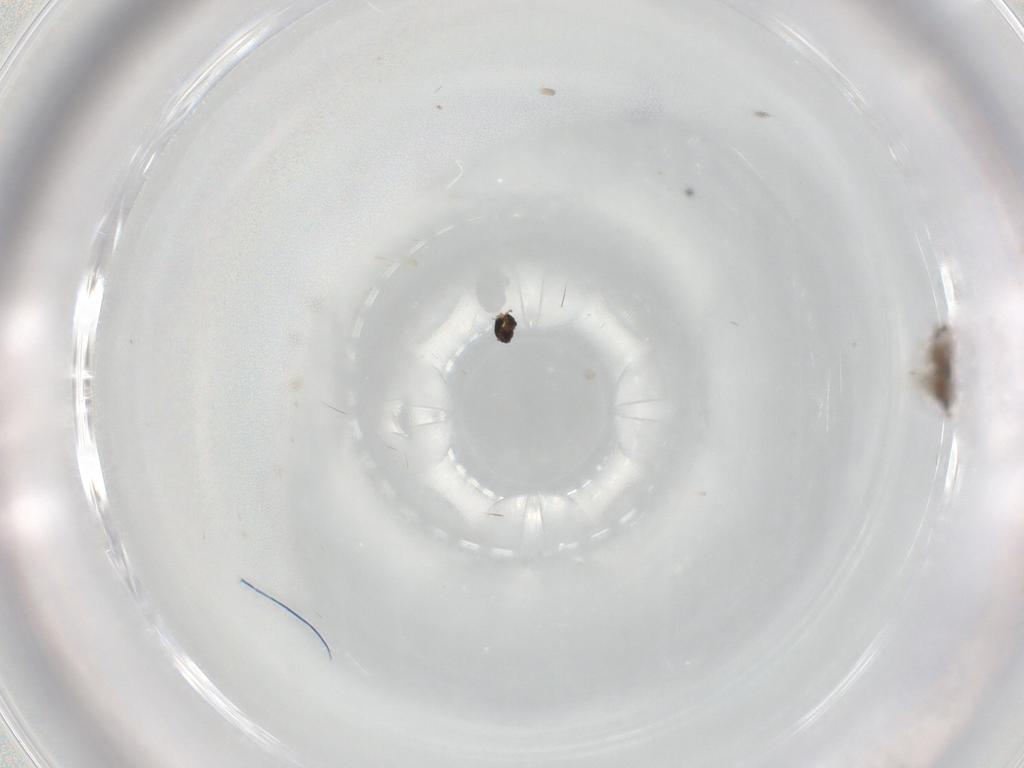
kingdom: Animalia
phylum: Arthropoda
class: Insecta
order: Diptera
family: Cecidomyiidae
